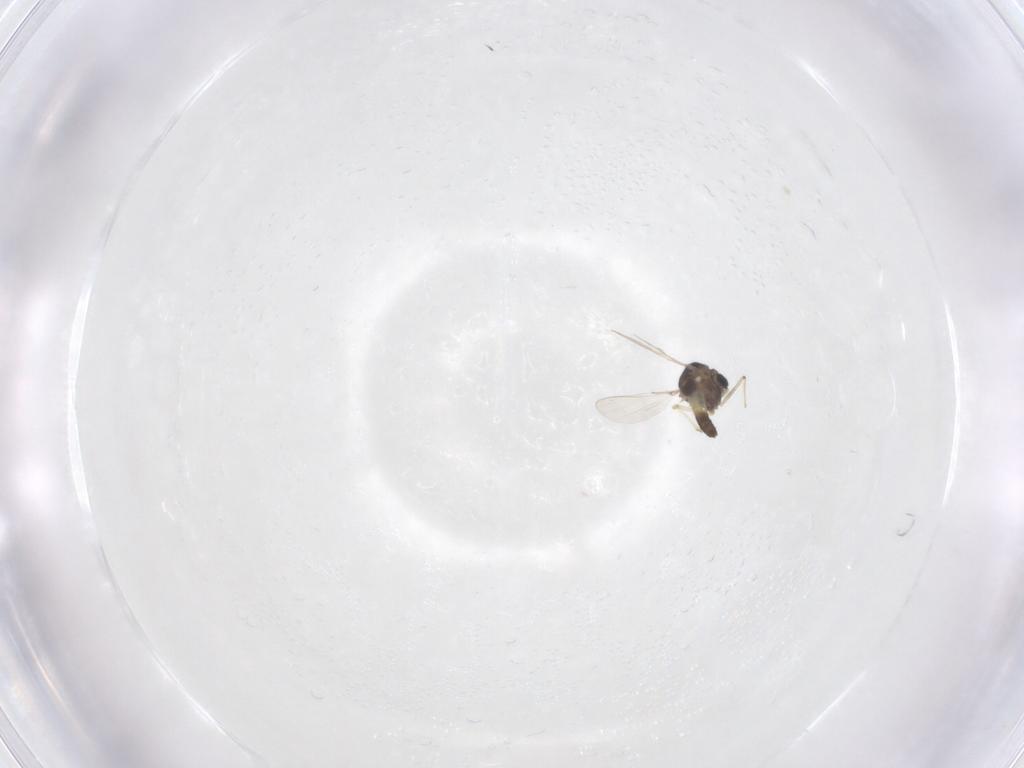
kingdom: Animalia
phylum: Arthropoda
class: Insecta
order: Diptera
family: Chironomidae
